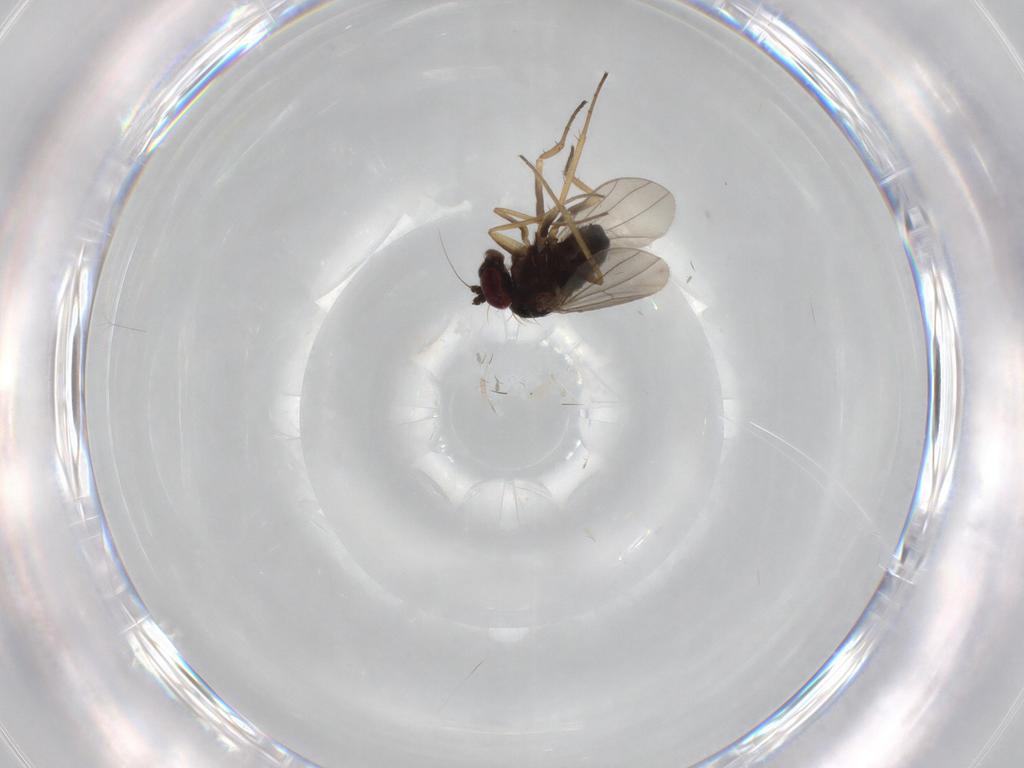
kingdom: Animalia
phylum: Arthropoda
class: Insecta
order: Diptera
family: Dolichopodidae
